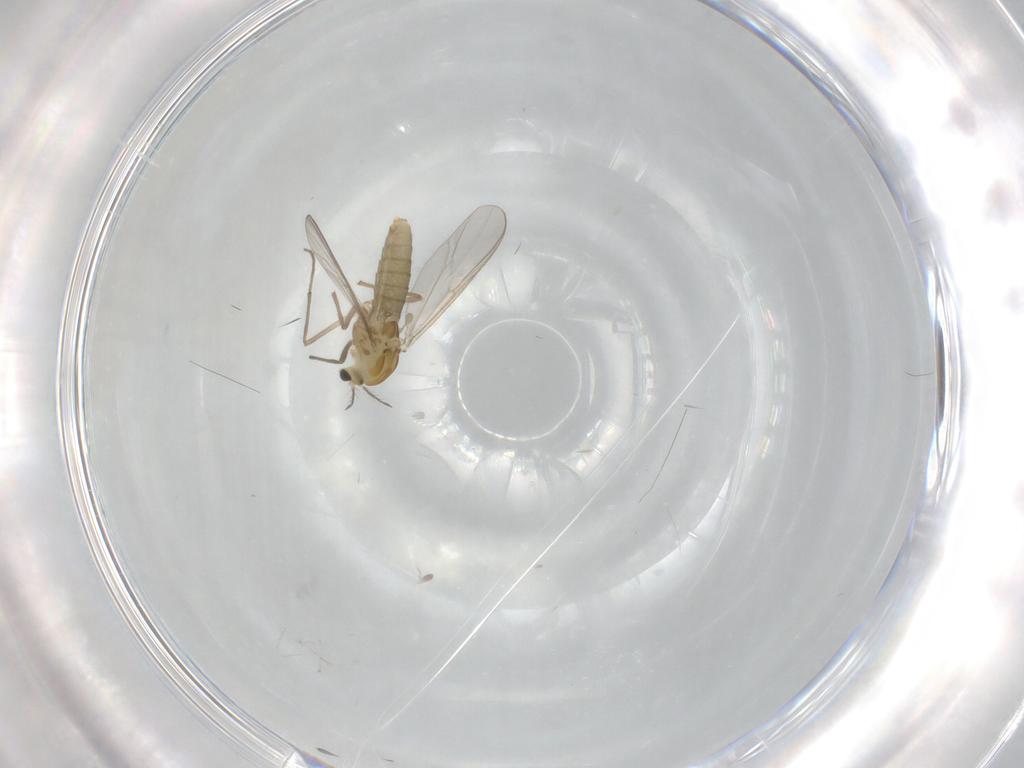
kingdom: Animalia
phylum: Arthropoda
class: Insecta
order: Diptera
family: Chironomidae
